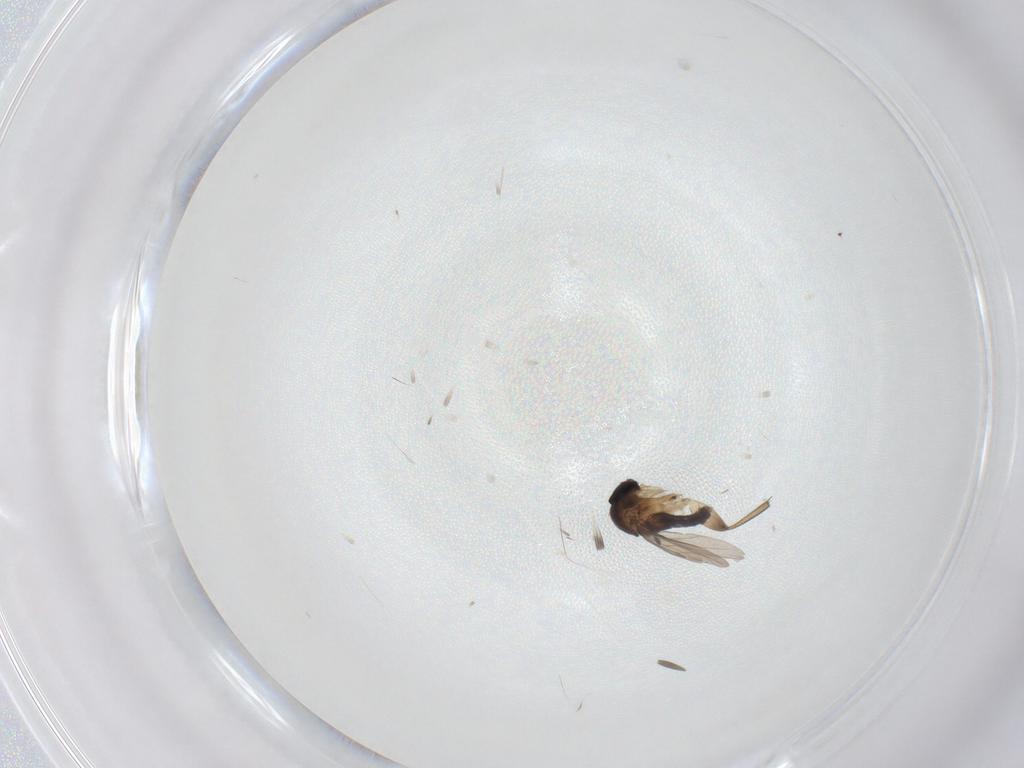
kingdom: Animalia
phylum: Arthropoda
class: Insecta
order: Diptera
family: Phoridae
